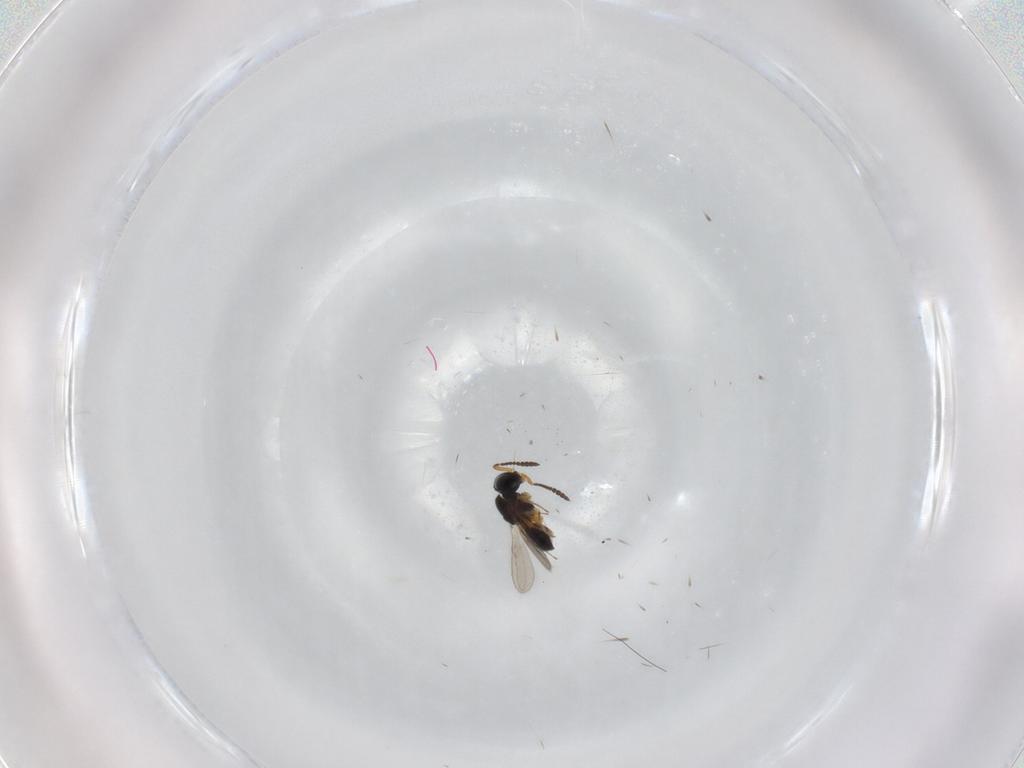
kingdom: Animalia
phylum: Arthropoda
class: Insecta
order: Hymenoptera
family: Scelionidae
